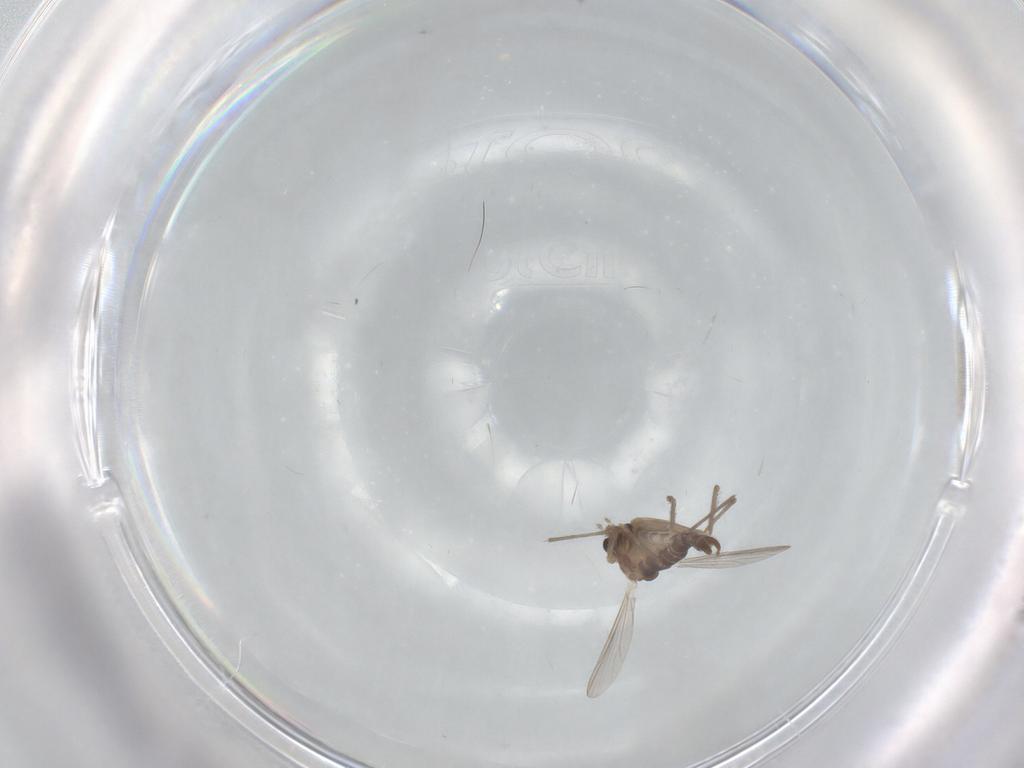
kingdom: Animalia
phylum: Arthropoda
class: Insecta
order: Diptera
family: Chironomidae
